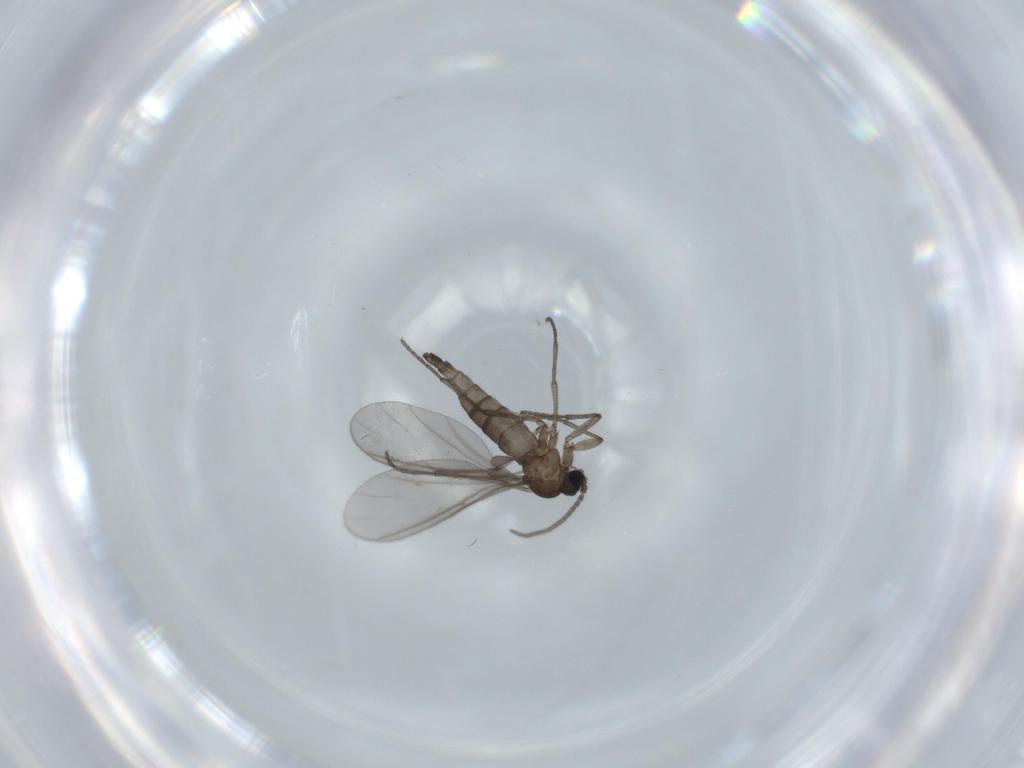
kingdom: Animalia
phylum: Arthropoda
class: Insecta
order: Diptera
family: Sciaridae
